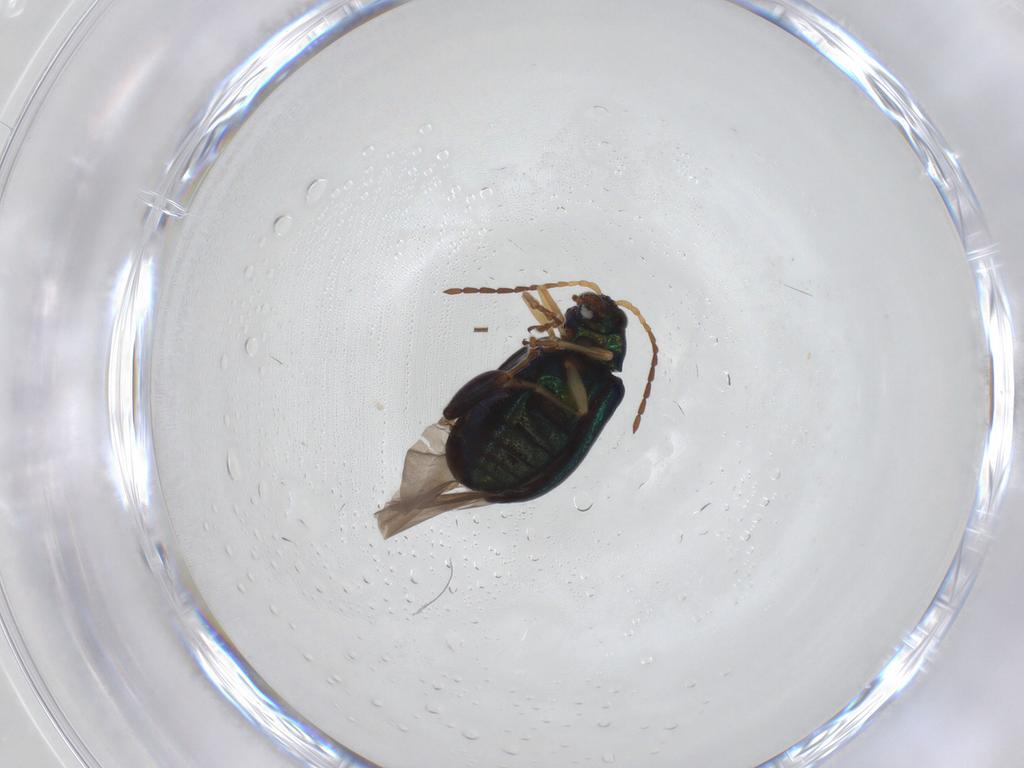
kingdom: Animalia
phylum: Arthropoda
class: Insecta
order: Coleoptera
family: Chrysomelidae
